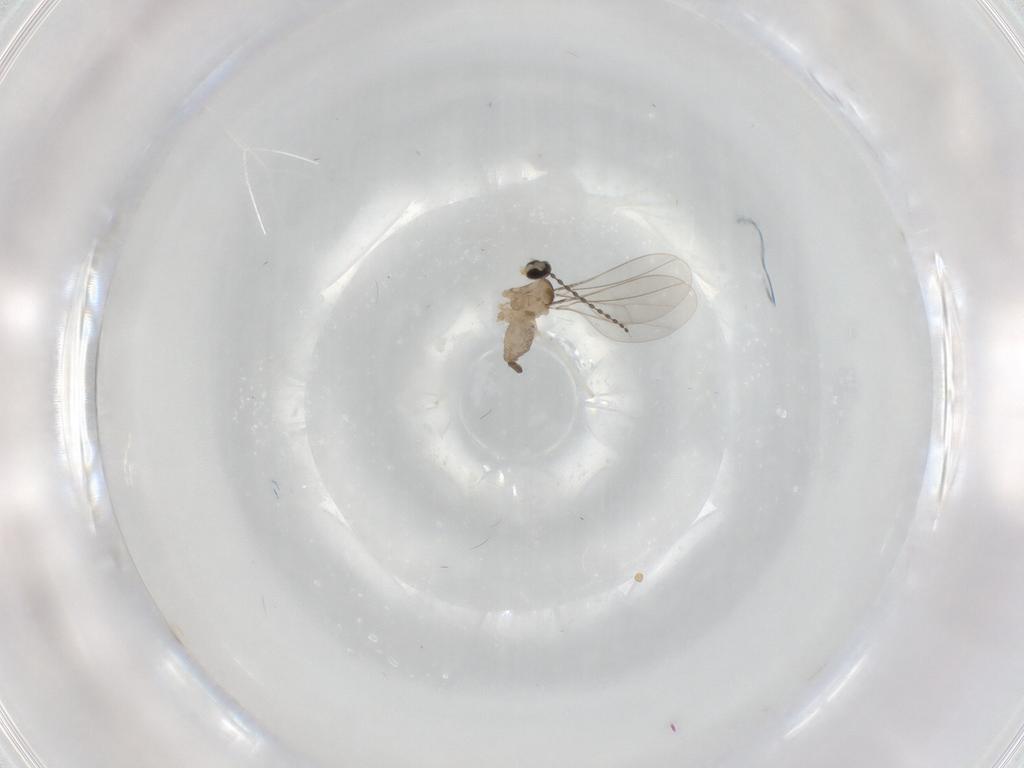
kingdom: Animalia
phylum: Arthropoda
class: Insecta
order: Diptera
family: Cecidomyiidae
